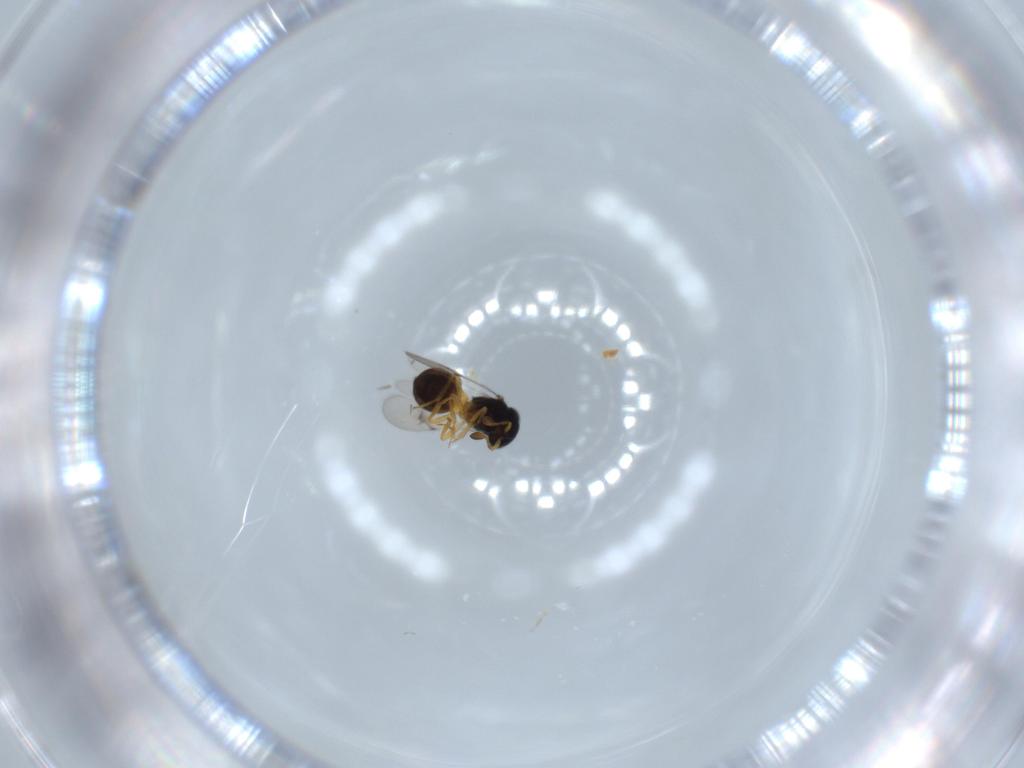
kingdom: Animalia
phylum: Arthropoda
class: Insecta
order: Hymenoptera
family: Scelionidae
